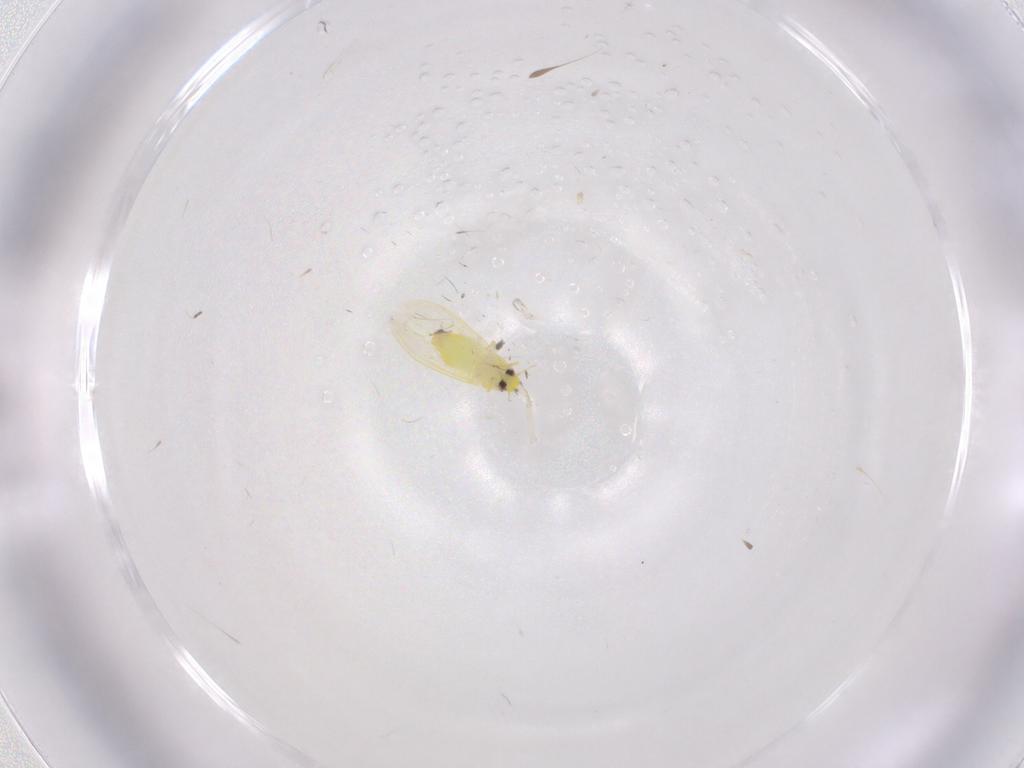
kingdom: Animalia
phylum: Arthropoda
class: Insecta
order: Hemiptera
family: Aleyrodidae
